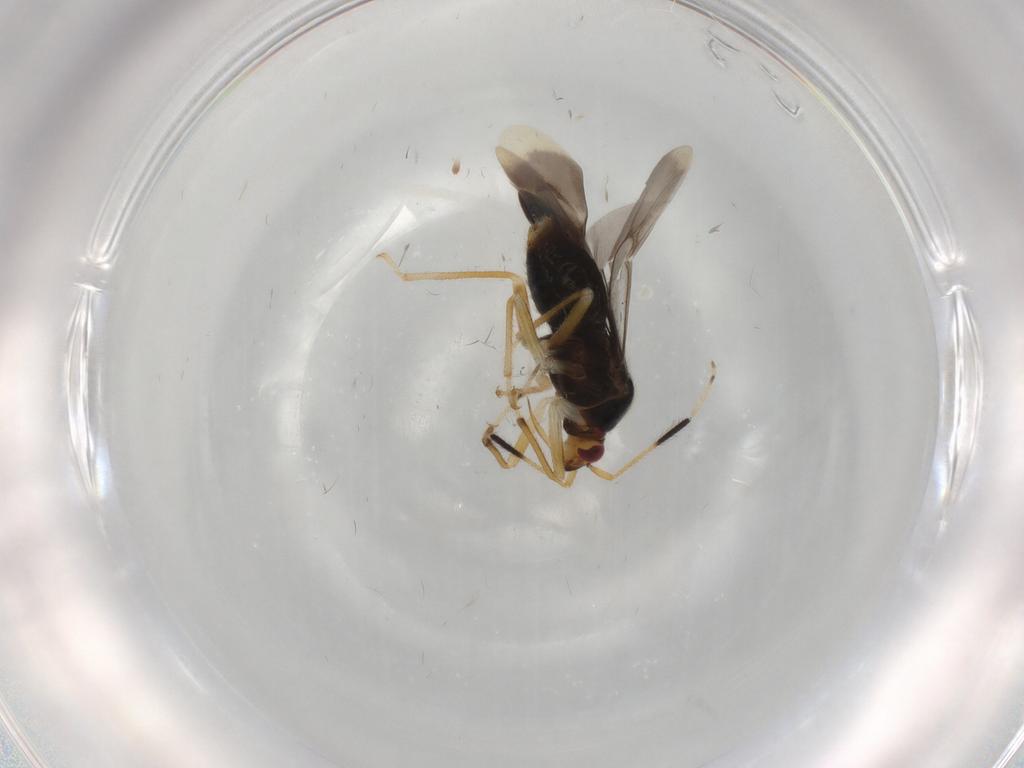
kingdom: Animalia
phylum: Arthropoda
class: Insecta
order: Hemiptera
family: Miridae
